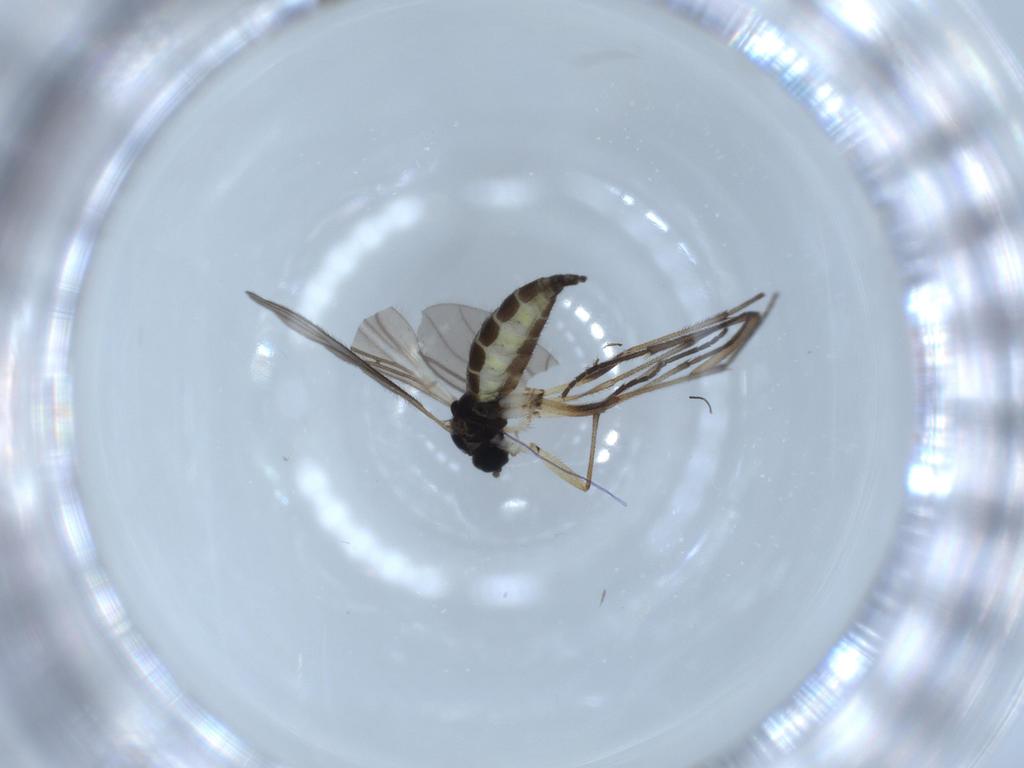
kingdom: Animalia
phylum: Arthropoda
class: Insecta
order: Diptera
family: Sciaridae
